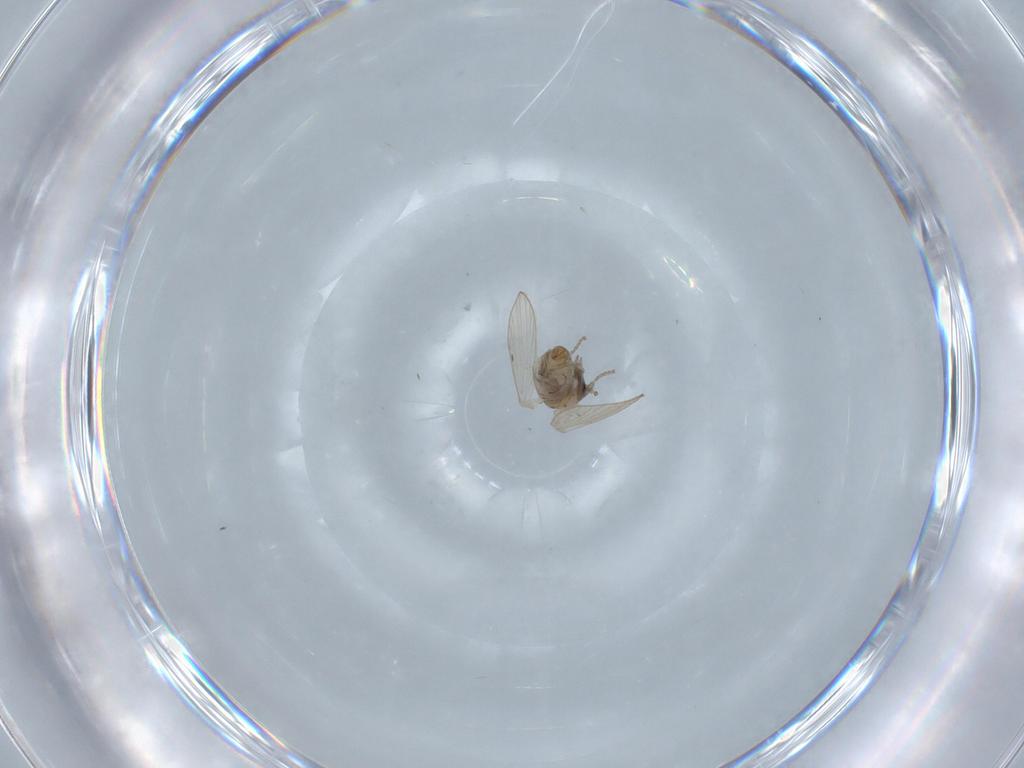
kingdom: Animalia
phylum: Arthropoda
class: Insecta
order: Diptera
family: Psychodidae
